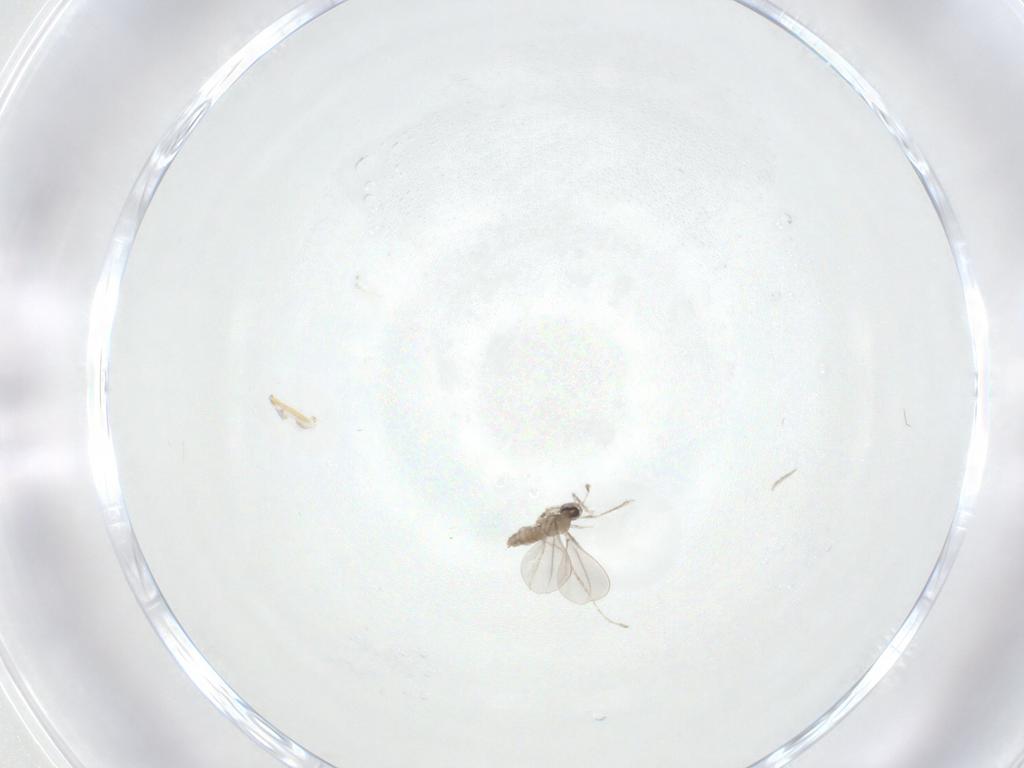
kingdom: Animalia
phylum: Arthropoda
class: Insecta
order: Diptera
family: Cecidomyiidae
